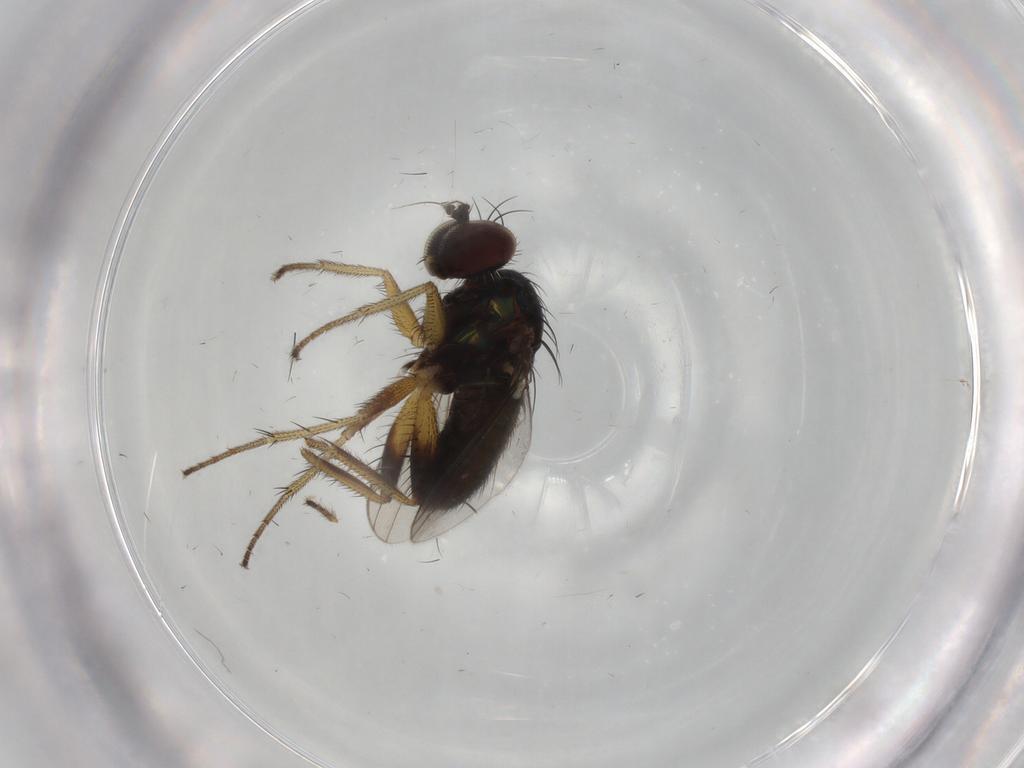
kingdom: Animalia
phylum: Arthropoda
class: Insecta
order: Diptera
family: Dolichopodidae
